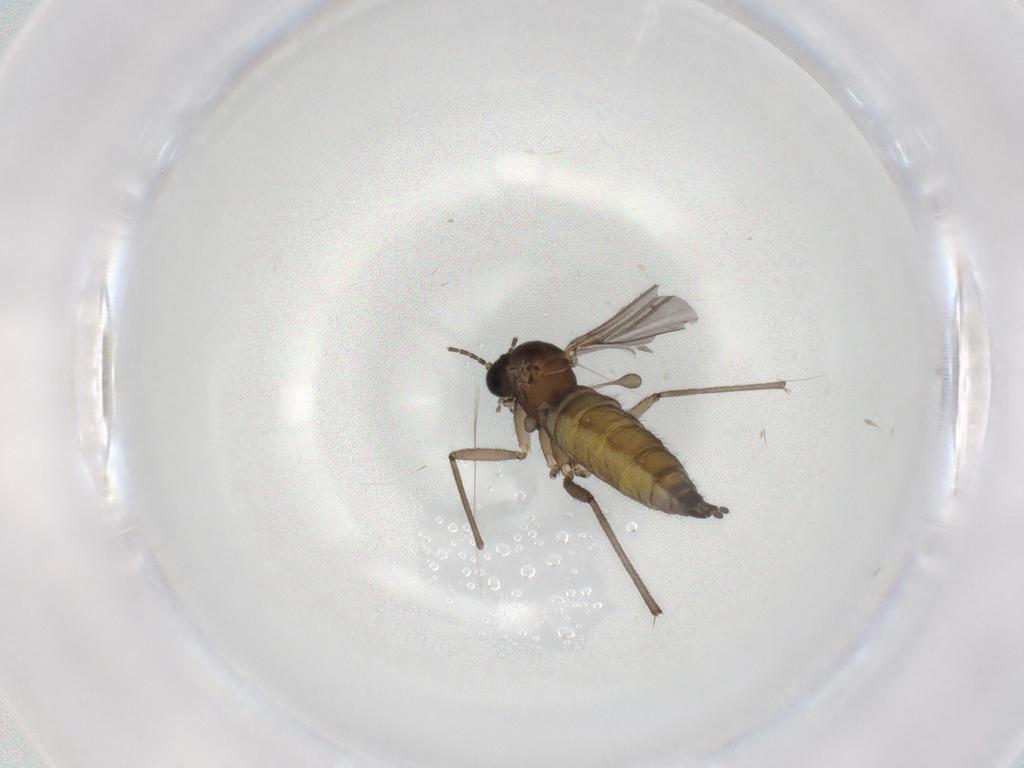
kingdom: Animalia
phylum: Arthropoda
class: Insecta
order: Diptera
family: Sciaridae
